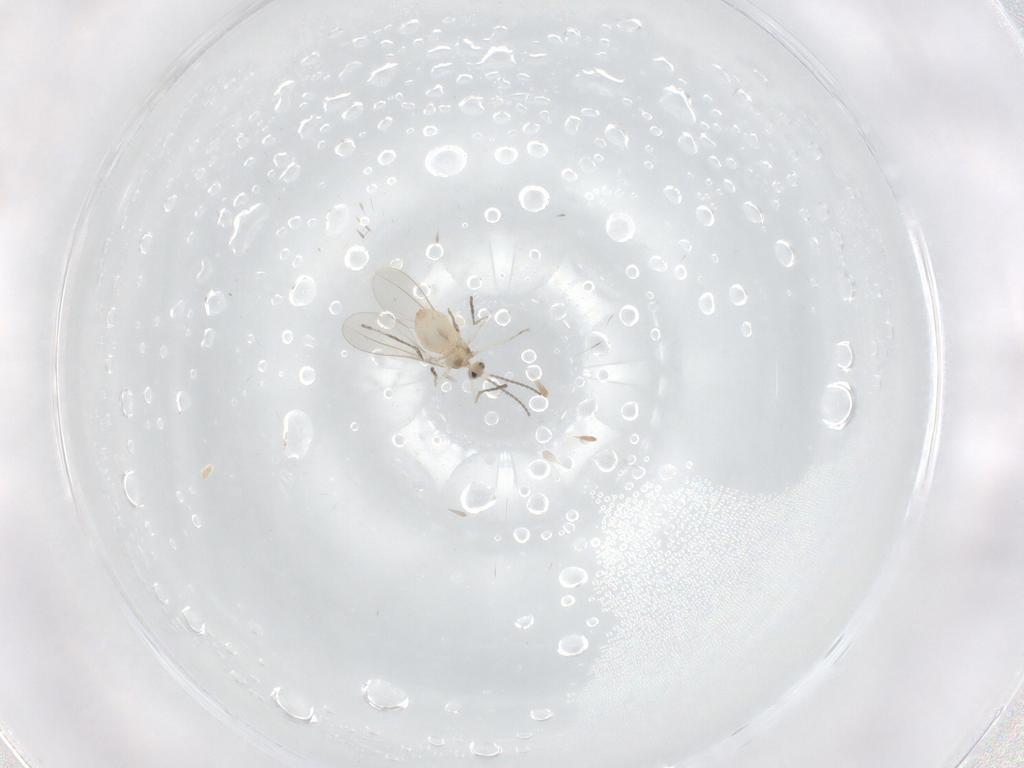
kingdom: Animalia
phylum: Arthropoda
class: Insecta
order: Diptera
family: Cecidomyiidae
